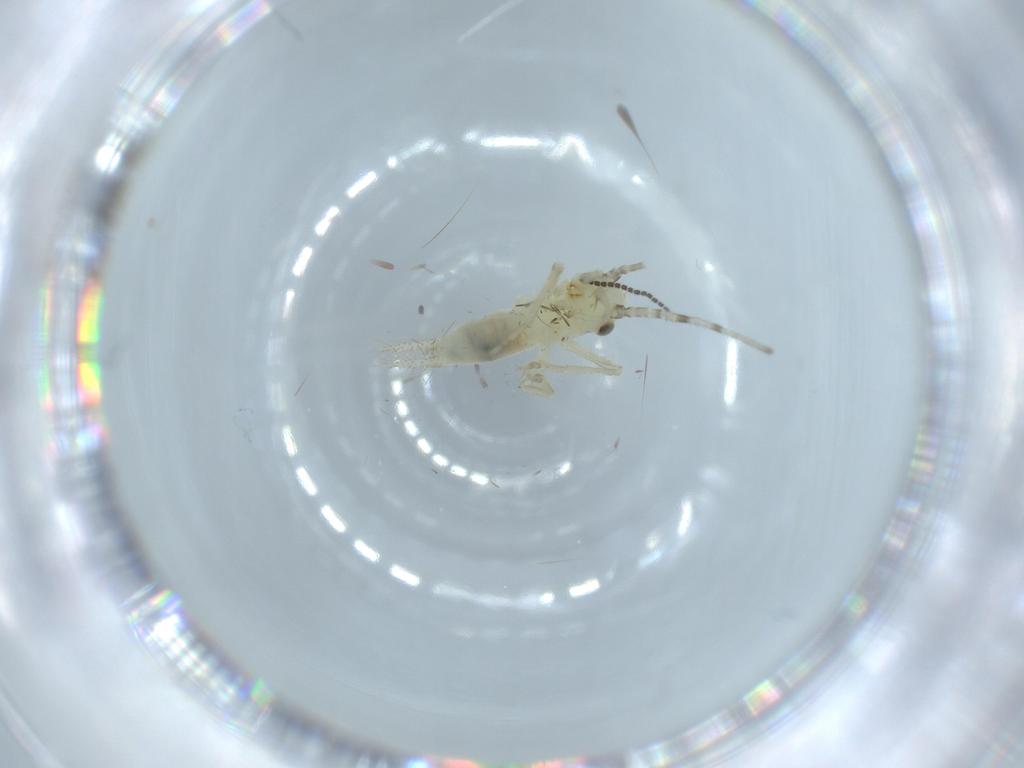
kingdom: Animalia
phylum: Arthropoda
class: Insecta
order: Orthoptera
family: Trigonidiidae
